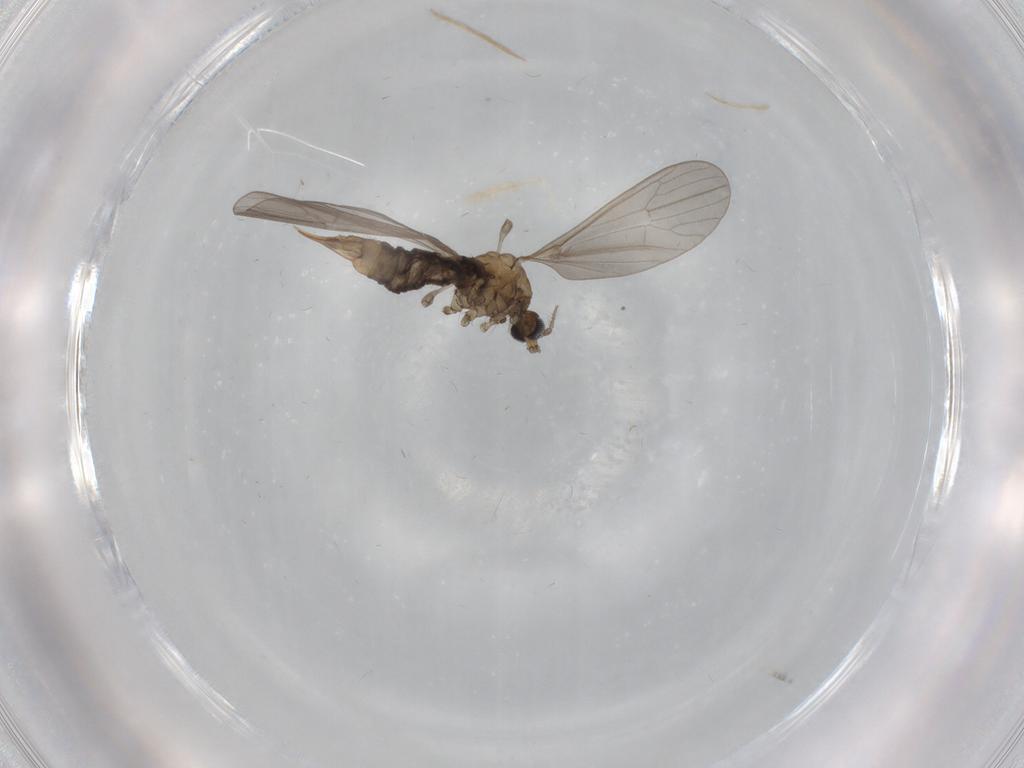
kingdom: Animalia
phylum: Arthropoda
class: Insecta
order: Diptera
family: Limoniidae
